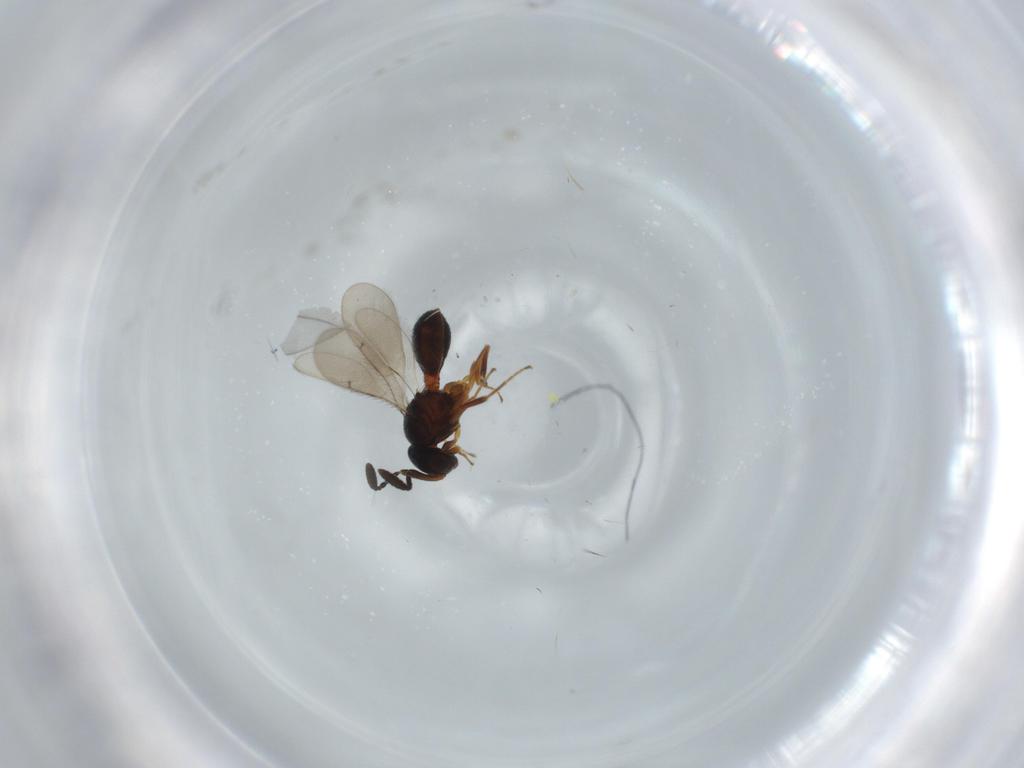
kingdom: Animalia
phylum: Arthropoda
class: Insecta
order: Hymenoptera
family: Scelionidae
